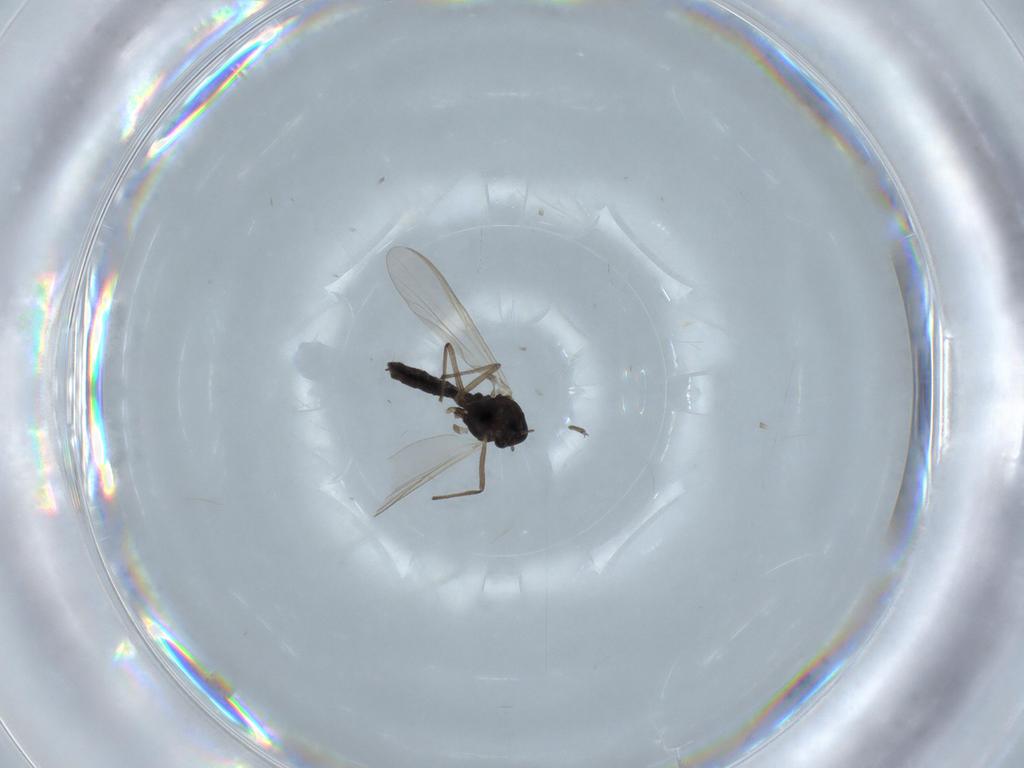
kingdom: Animalia
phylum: Arthropoda
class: Insecta
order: Diptera
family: Chironomidae
